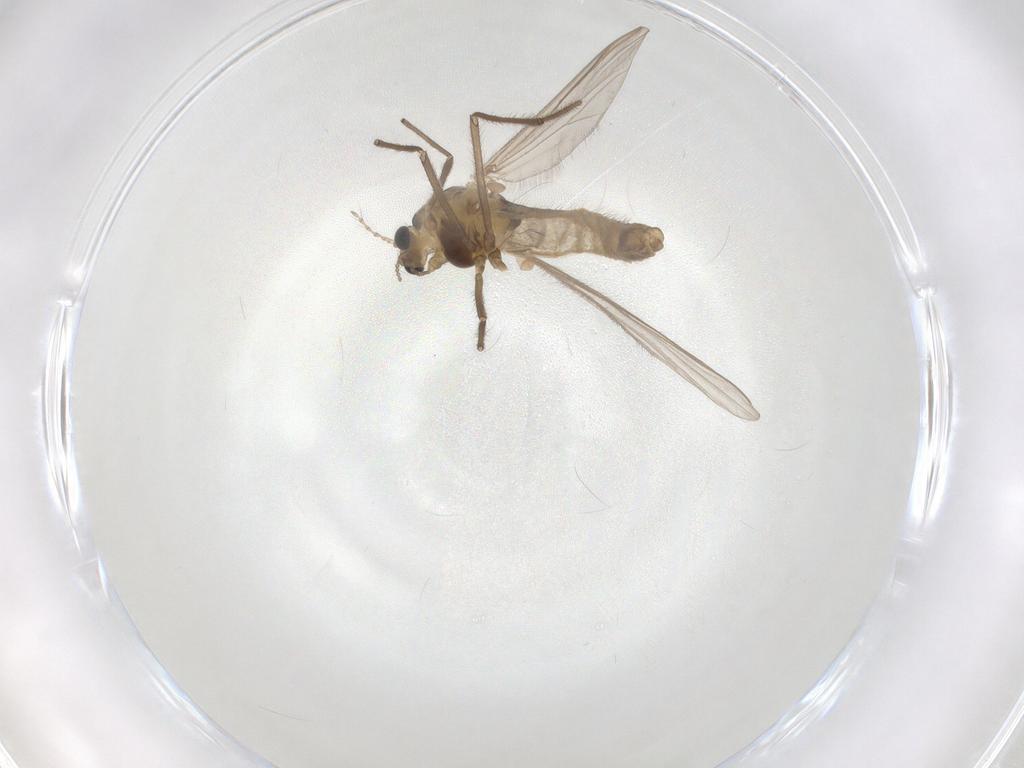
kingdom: Animalia
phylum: Arthropoda
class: Insecta
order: Diptera
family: Chironomidae
